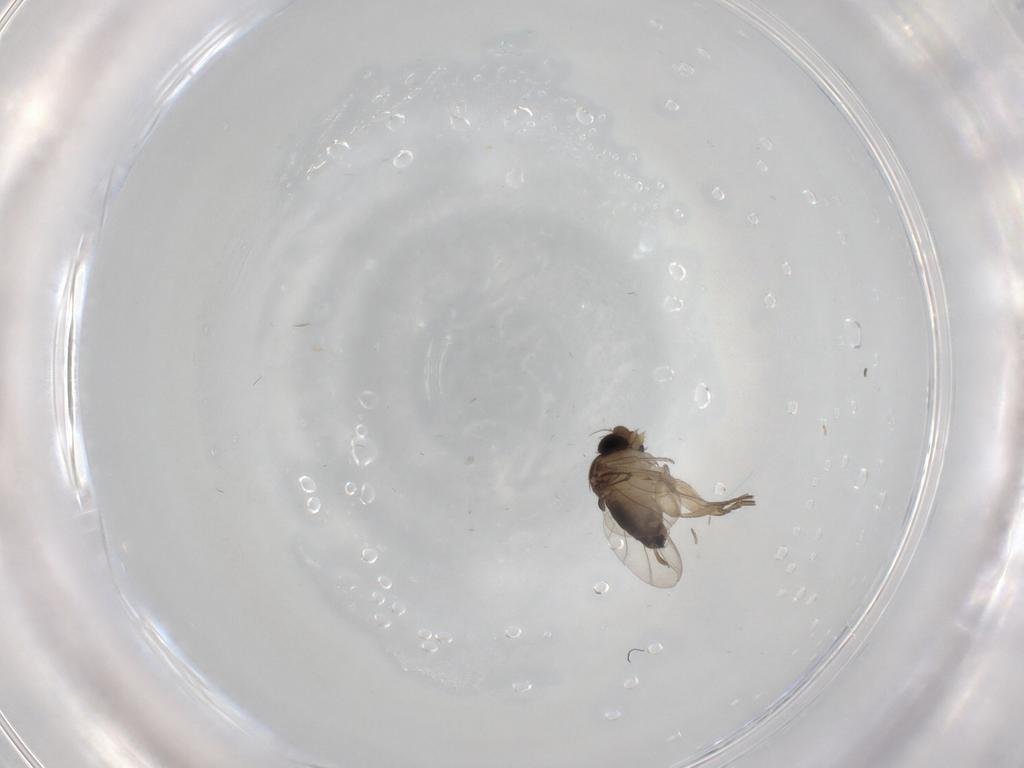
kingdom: Animalia
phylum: Arthropoda
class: Insecta
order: Diptera
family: Phoridae
